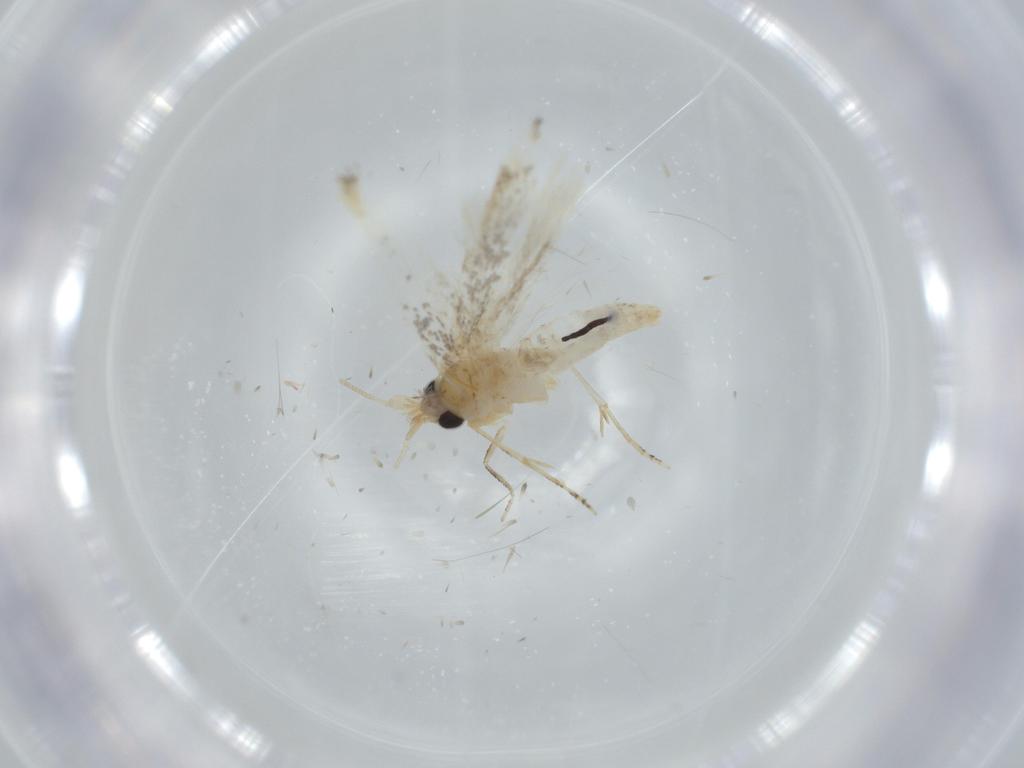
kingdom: Animalia
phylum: Arthropoda
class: Insecta
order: Lepidoptera
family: Bucculatricidae
